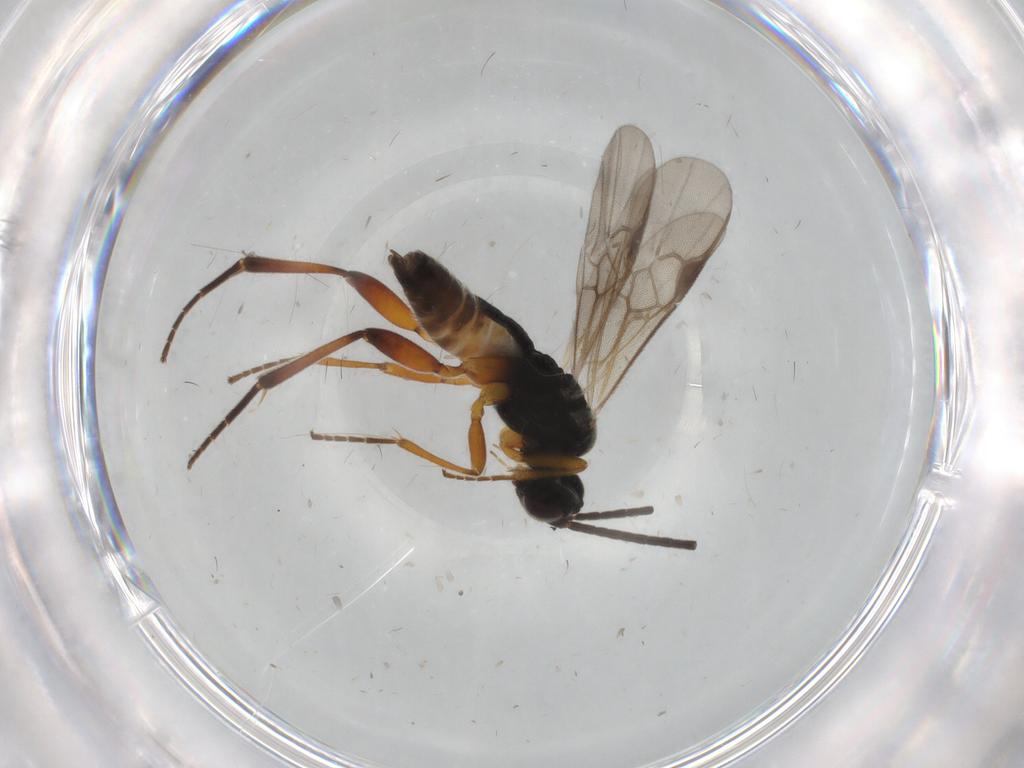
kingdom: Animalia
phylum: Arthropoda
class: Insecta
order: Hymenoptera
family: Braconidae
